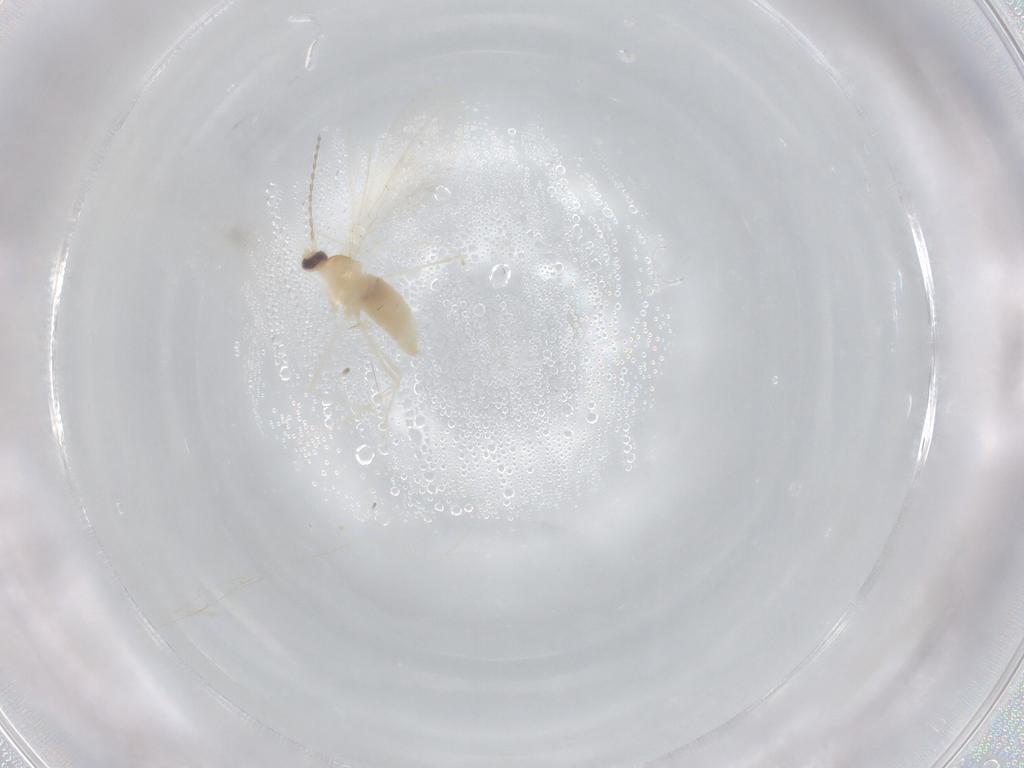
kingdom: Animalia
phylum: Arthropoda
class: Insecta
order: Diptera
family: Cecidomyiidae
